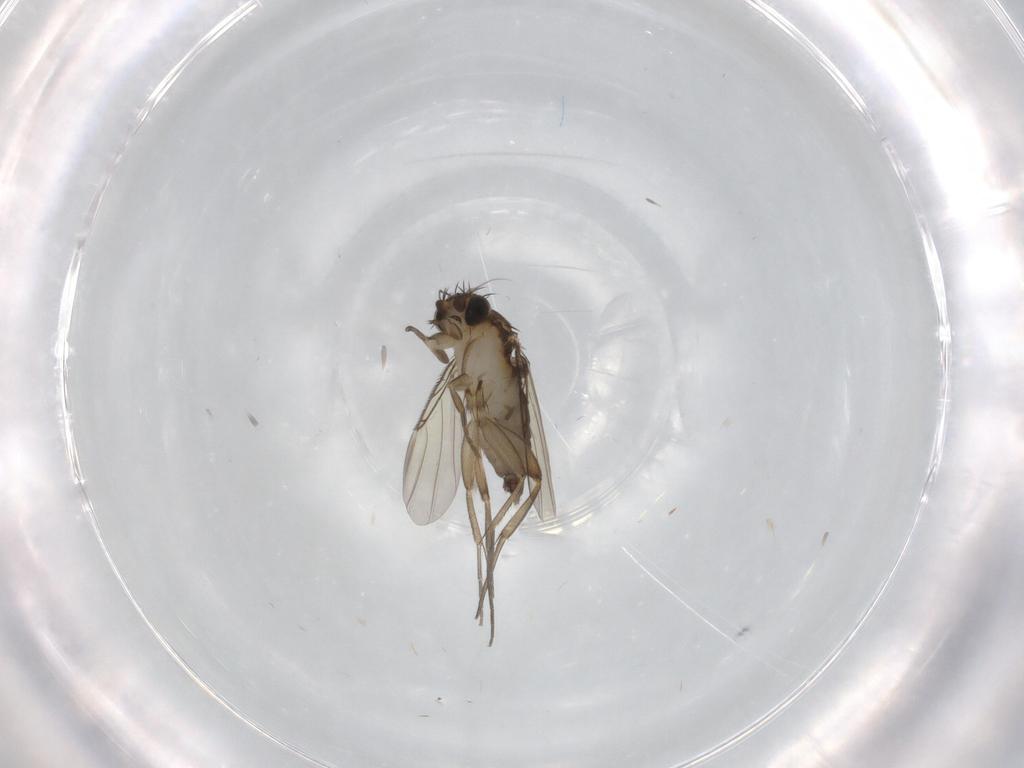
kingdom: Animalia
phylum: Arthropoda
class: Insecta
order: Diptera
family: Phoridae
